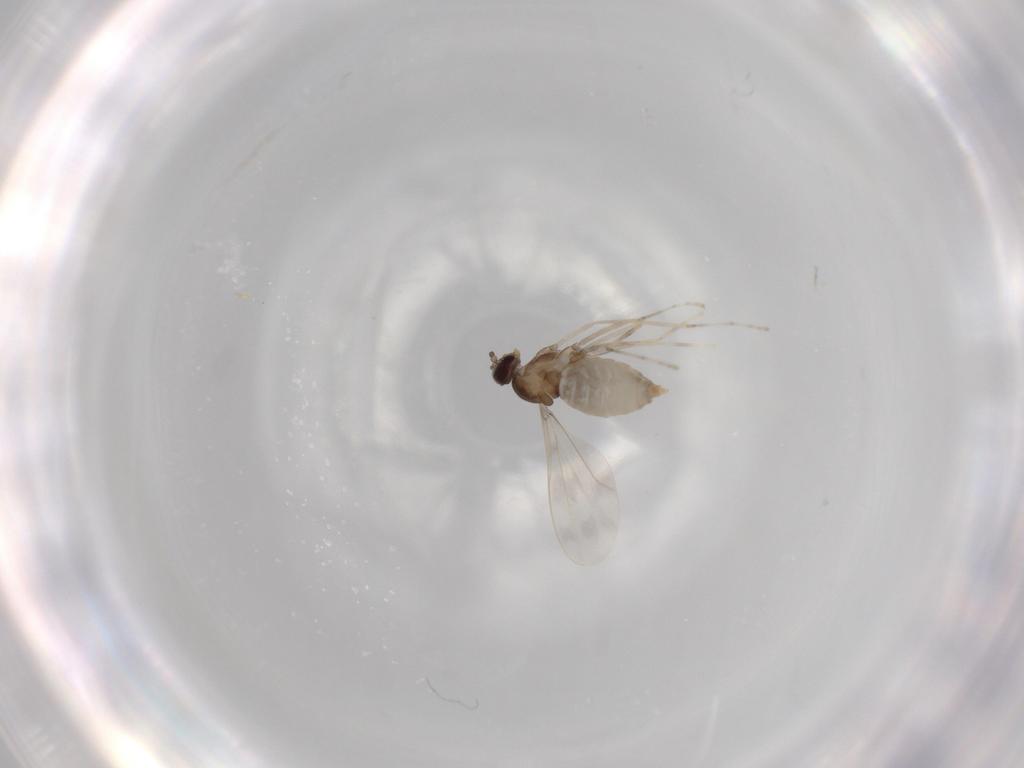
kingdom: Animalia
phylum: Arthropoda
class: Insecta
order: Diptera
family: Cecidomyiidae
